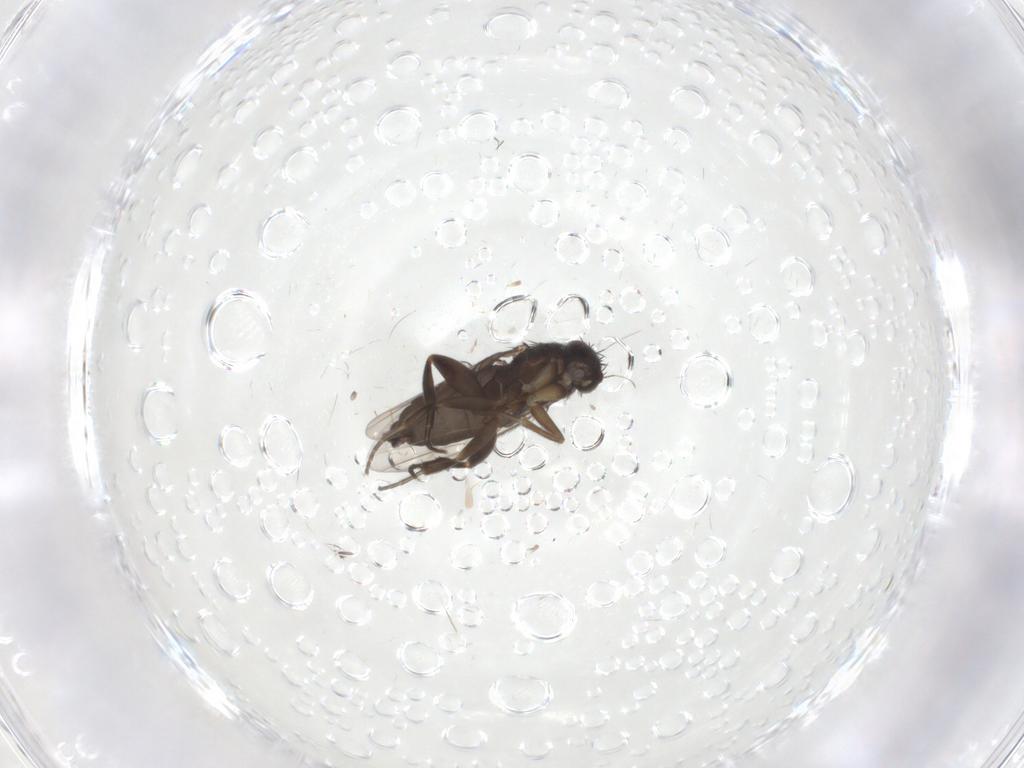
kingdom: Animalia
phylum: Arthropoda
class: Insecta
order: Diptera
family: Phoridae
